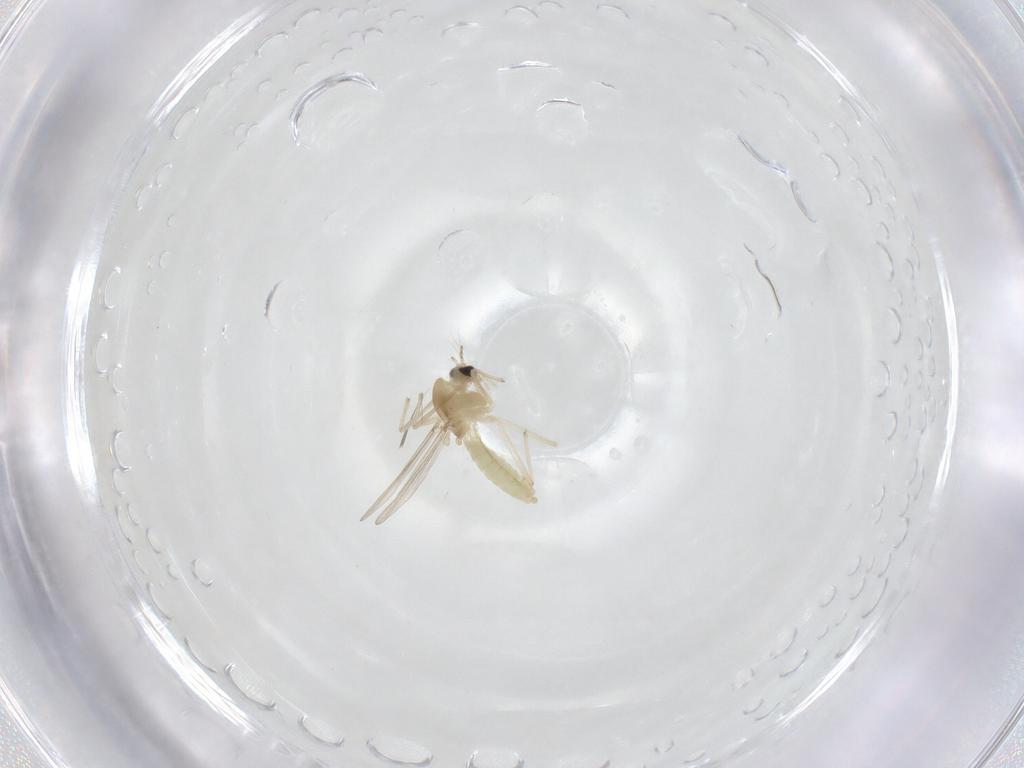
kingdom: Animalia
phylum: Arthropoda
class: Insecta
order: Diptera
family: Chironomidae
